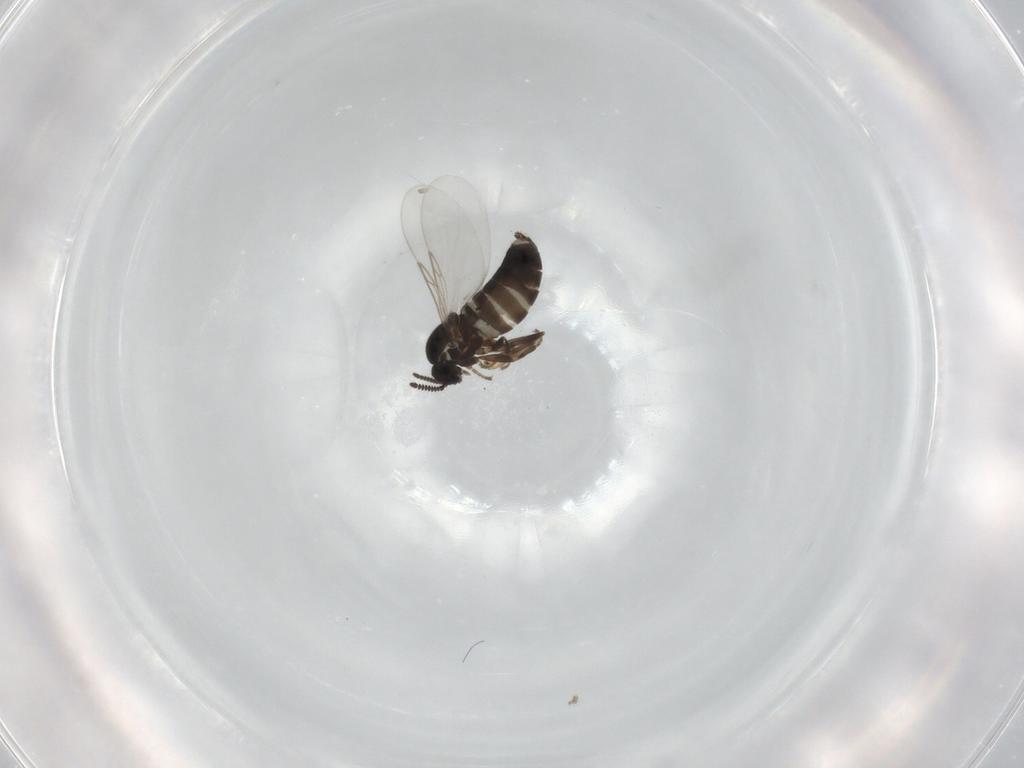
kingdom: Animalia
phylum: Arthropoda
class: Insecta
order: Diptera
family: Scatopsidae
